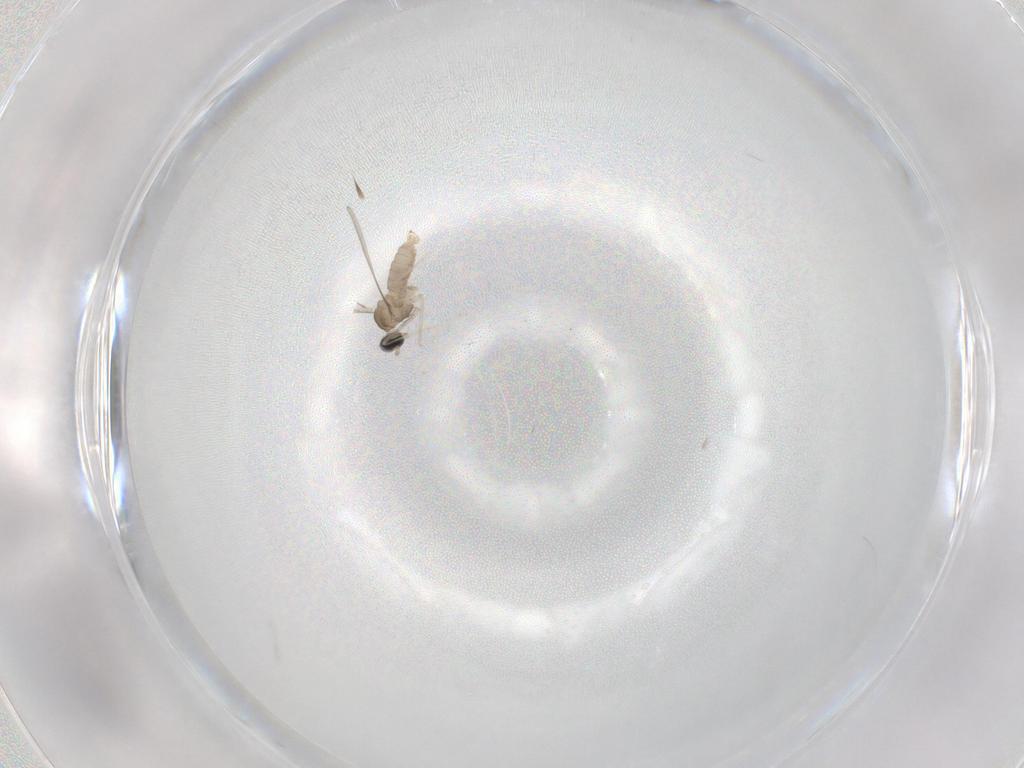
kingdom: Animalia
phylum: Arthropoda
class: Insecta
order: Diptera
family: Cecidomyiidae
